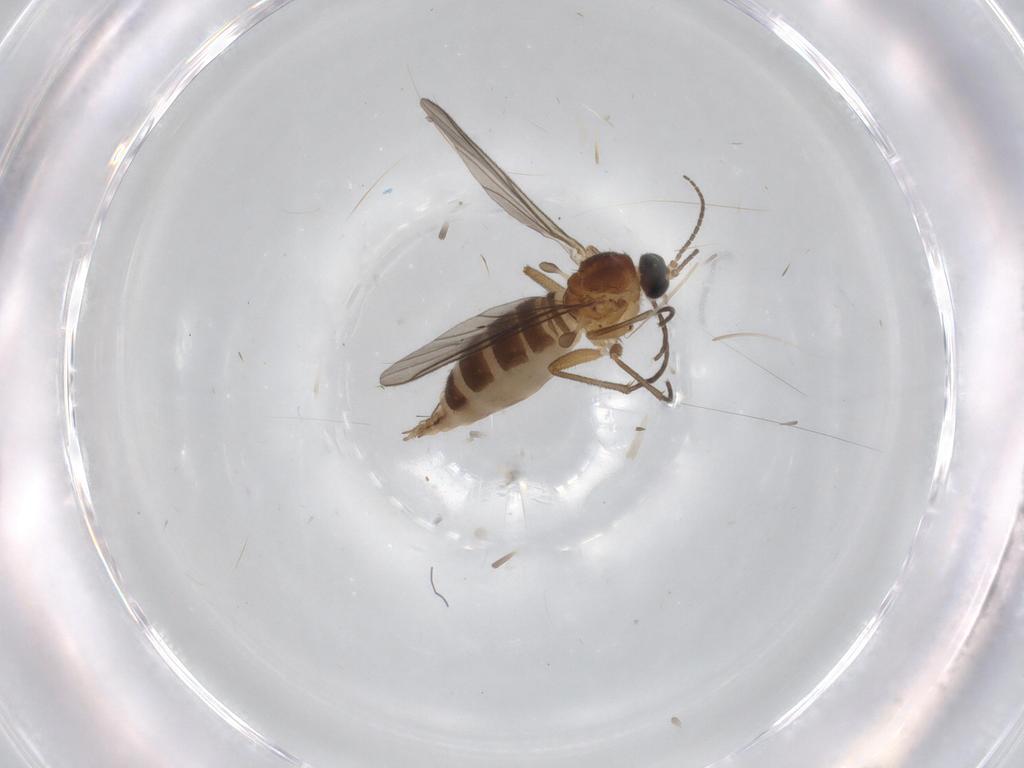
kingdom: Animalia
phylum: Arthropoda
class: Insecta
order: Diptera
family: Sciaridae
